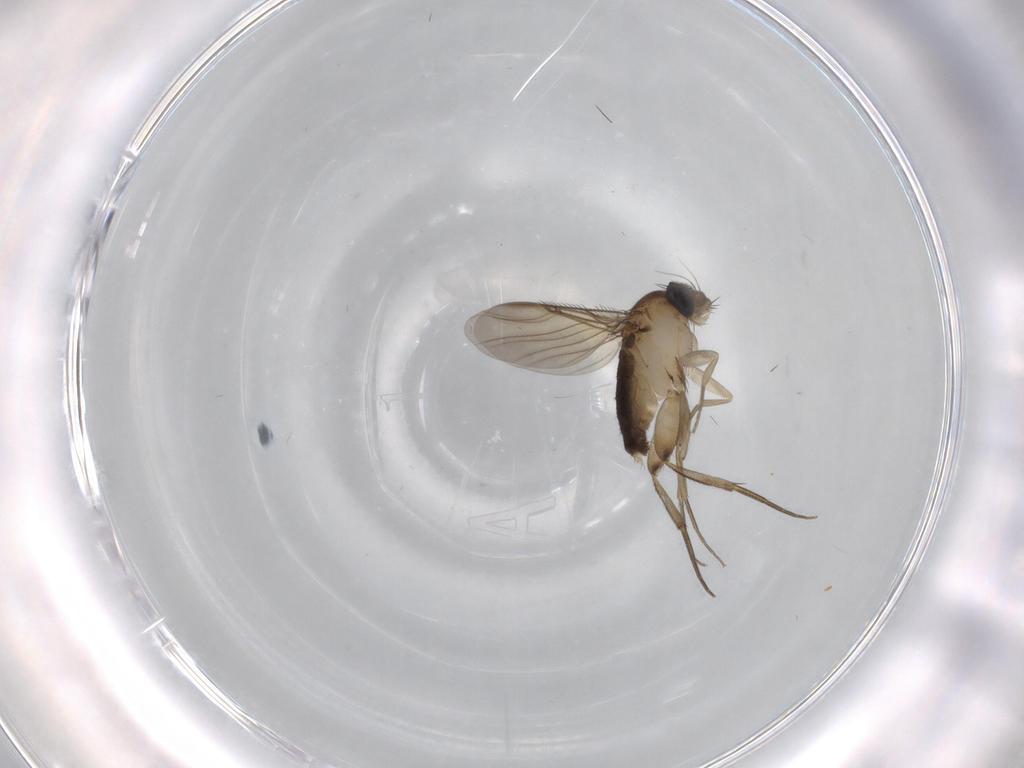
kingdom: Animalia
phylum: Arthropoda
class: Insecta
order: Diptera
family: Phoridae
